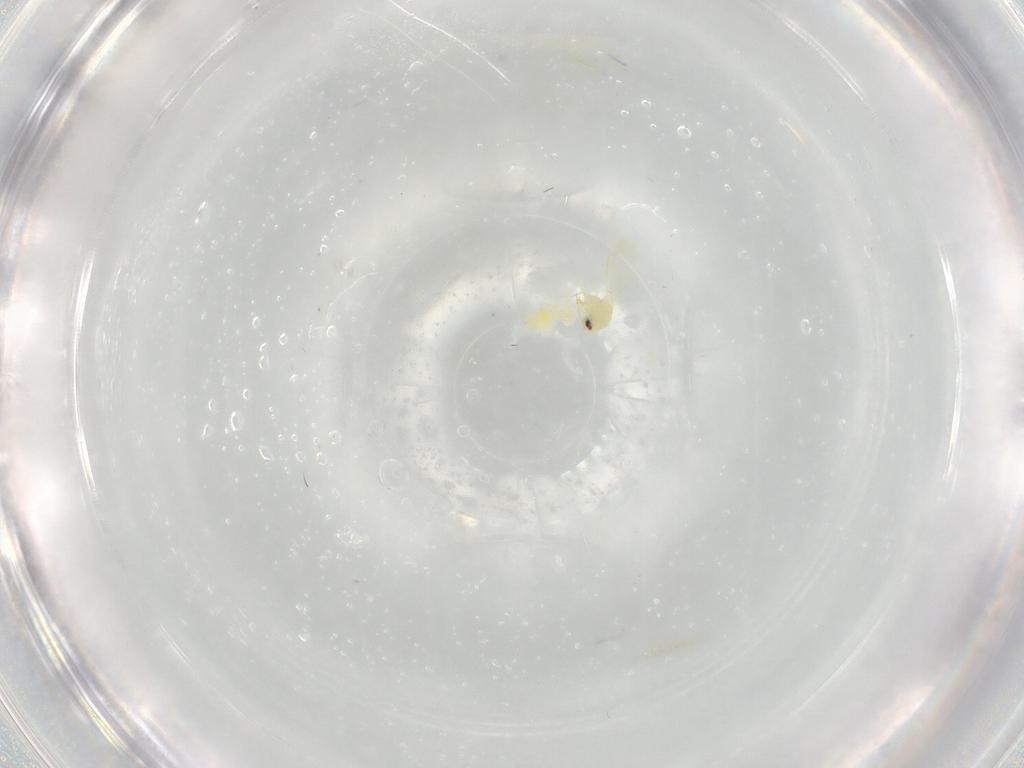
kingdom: Animalia
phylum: Arthropoda
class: Insecta
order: Hemiptera
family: Aleyrodidae
